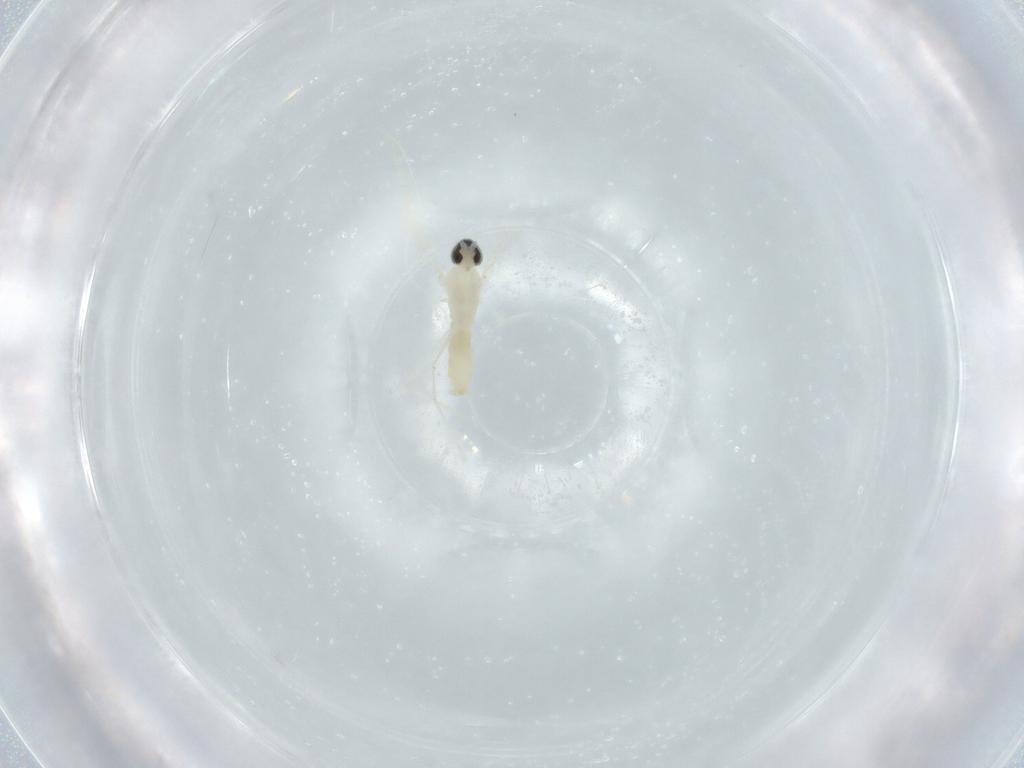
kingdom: Animalia
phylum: Arthropoda
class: Insecta
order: Diptera
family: Cecidomyiidae
